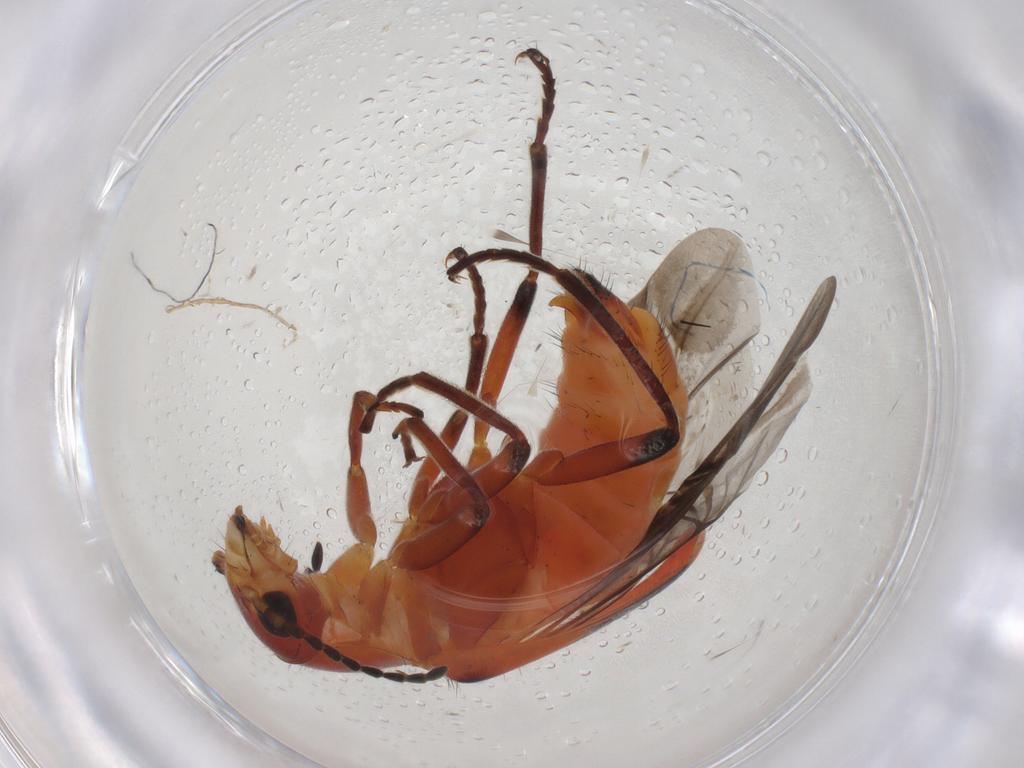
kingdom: Animalia
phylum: Arthropoda
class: Insecta
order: Coleoptera
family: Melyridae
